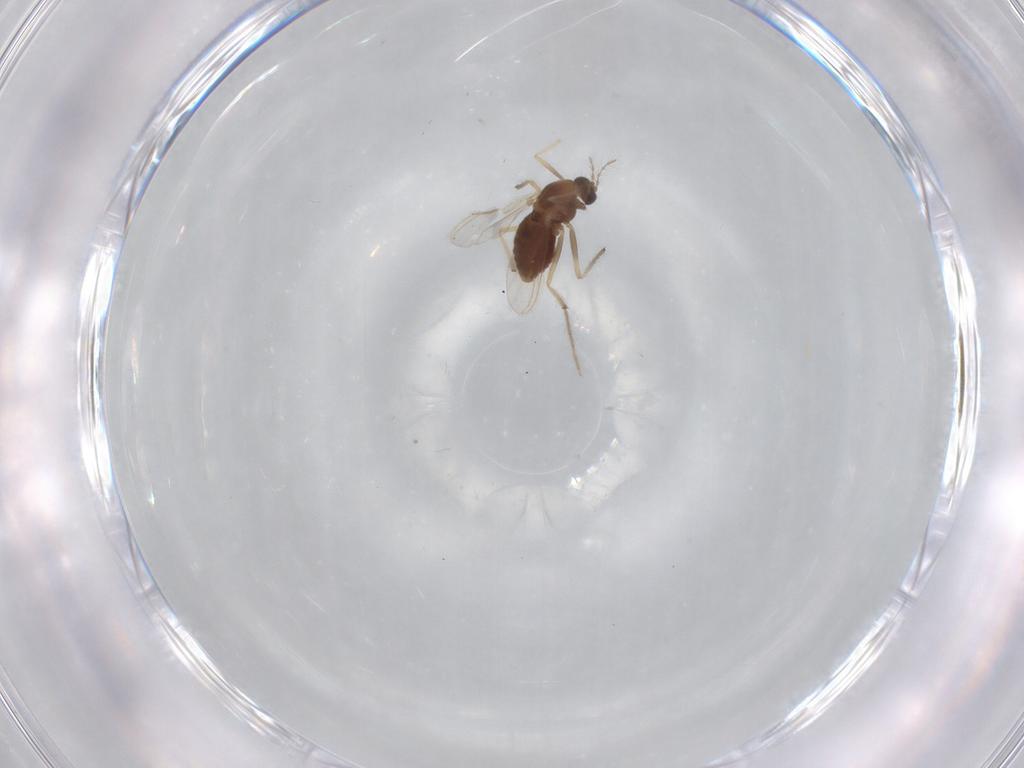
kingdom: Animalia
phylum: Arthropoda
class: Insecta
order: Diptera
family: Chironomidae
